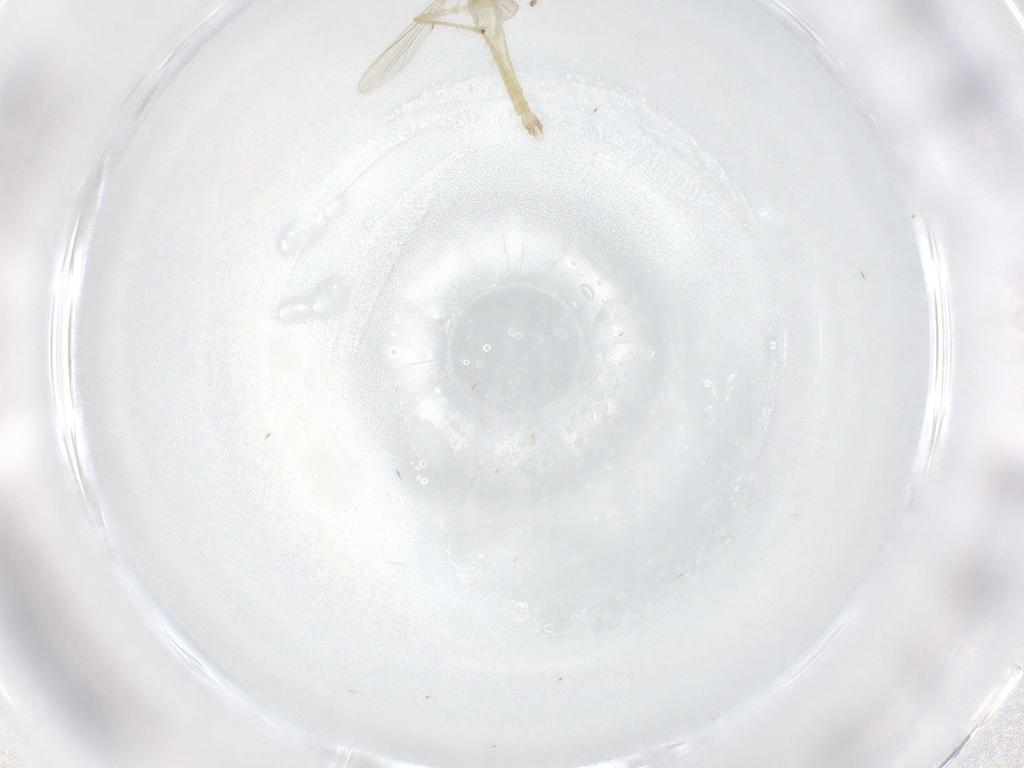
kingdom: Animalia
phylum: Arthropoda
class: Insecta
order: Diptera
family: Chironomidae
